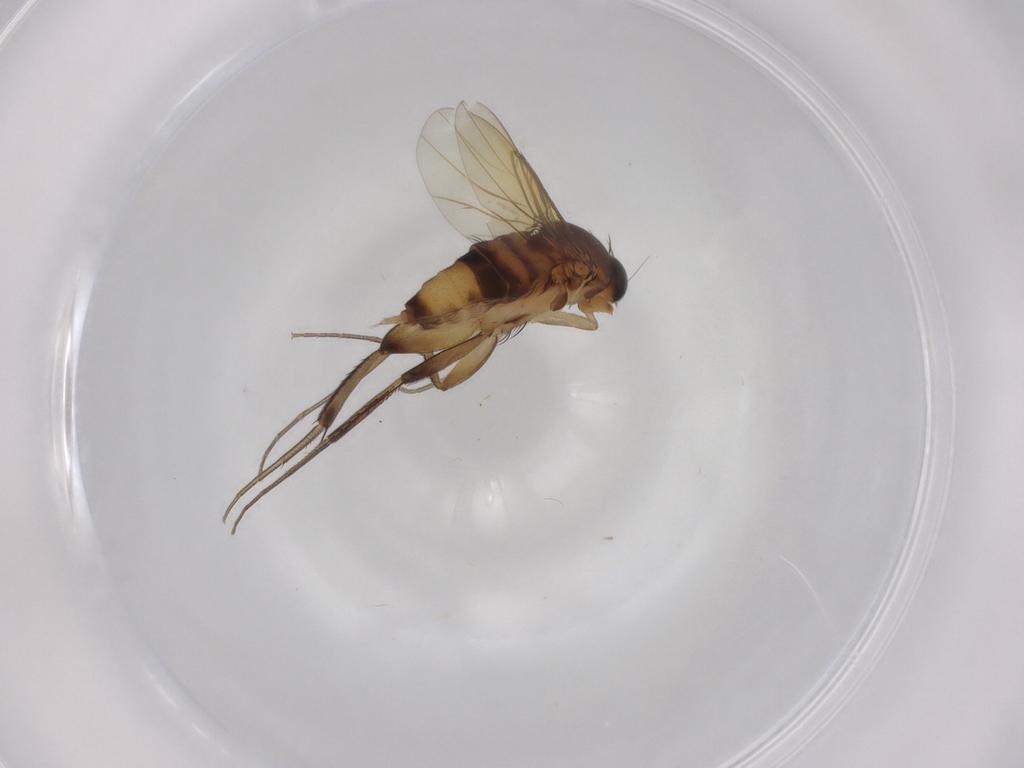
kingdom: Animalia
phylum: Arthropoda
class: Insecta
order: Diptera
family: Phoridae
